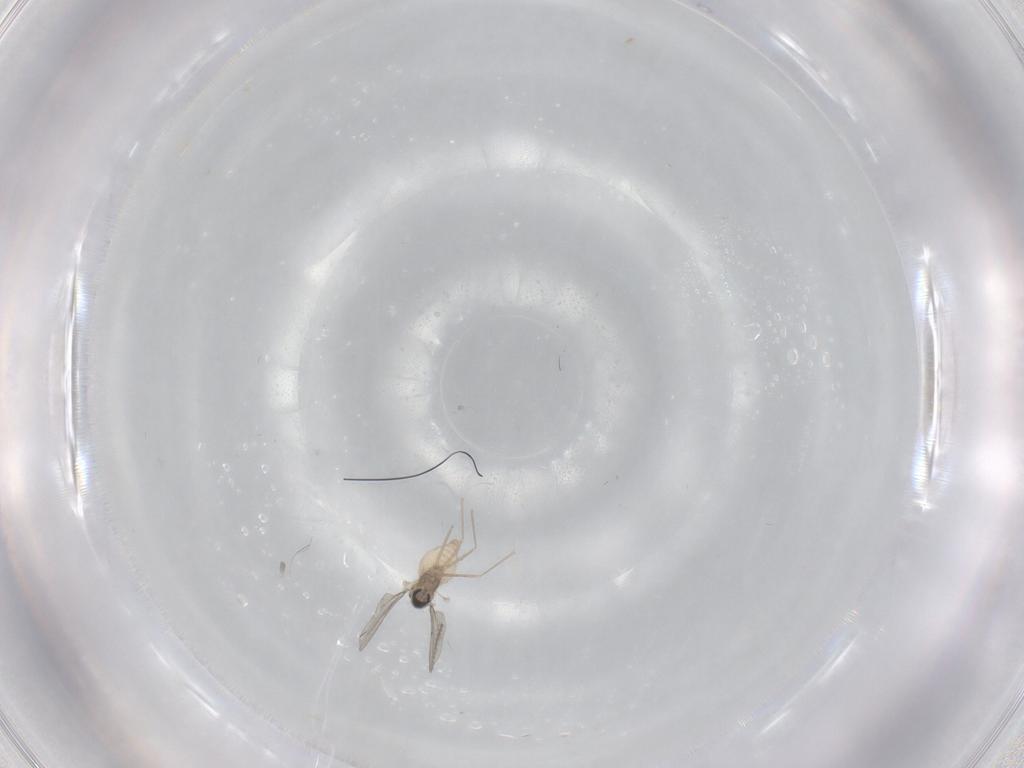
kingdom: Animalia
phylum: Arthropoda
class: Insecta
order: Diptera
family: Cecidomyiidae
